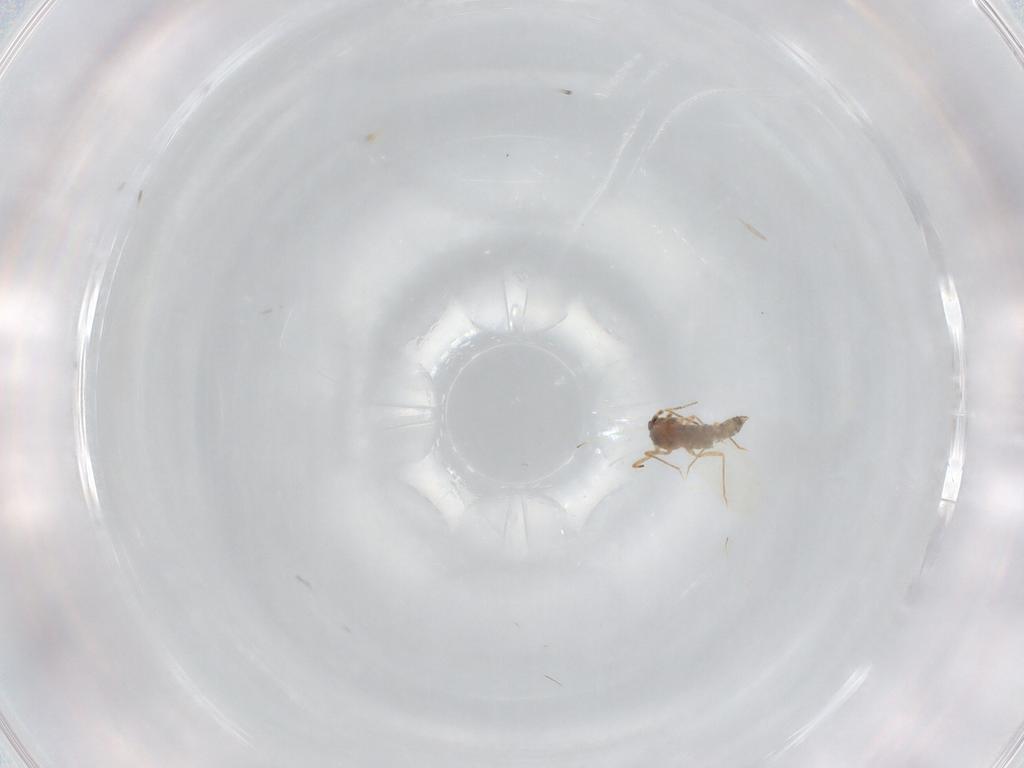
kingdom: Animalia
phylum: Arthropoda
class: Insecta
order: Hemiptera
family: Pseudococcidae
